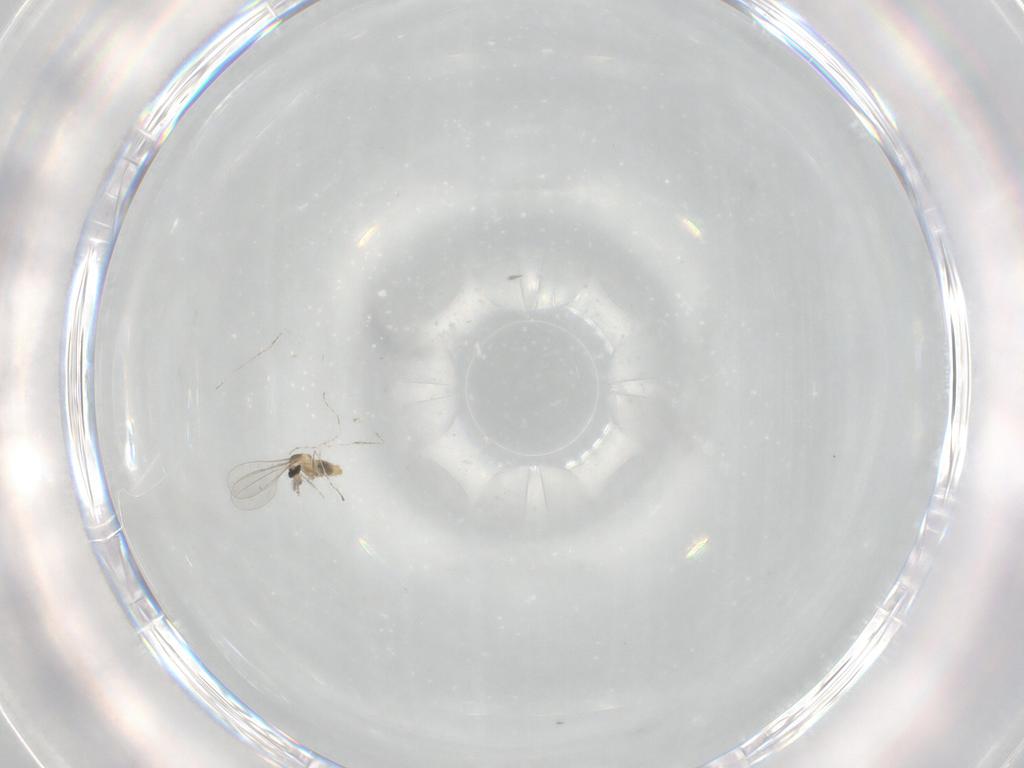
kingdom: Animalia
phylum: Arthropoda
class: Insecta
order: Diptera
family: Cecidomyiidae
